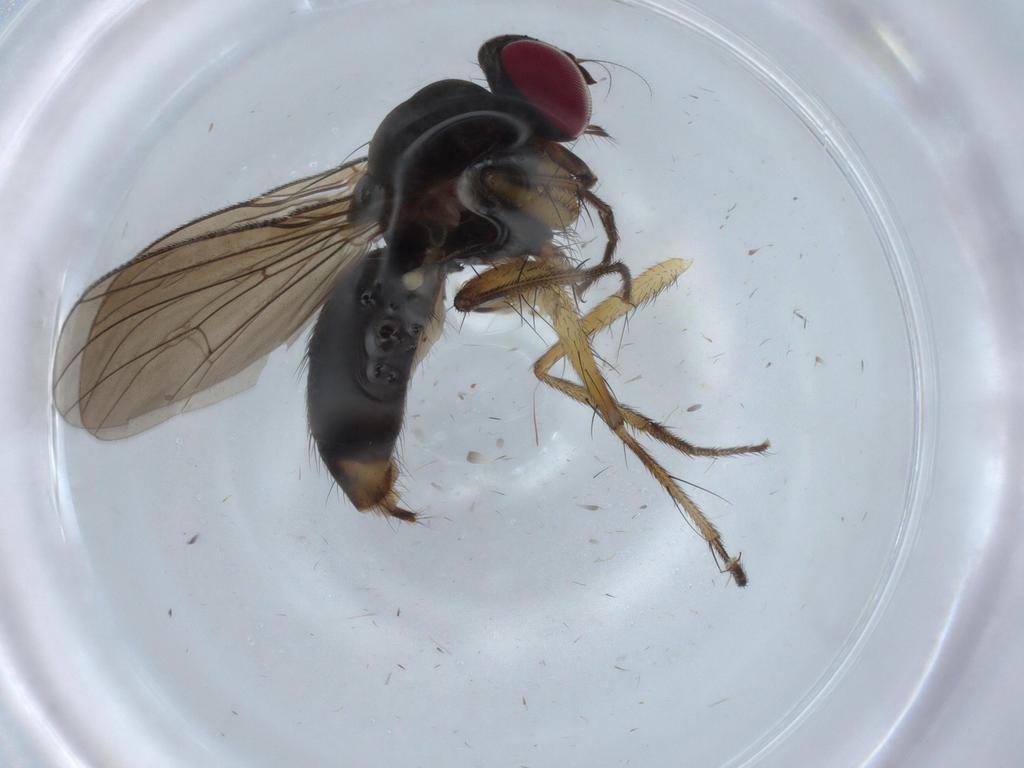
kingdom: Animalia
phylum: Arthropoda
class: Insecta
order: Diptera
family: Anthomyiidae
